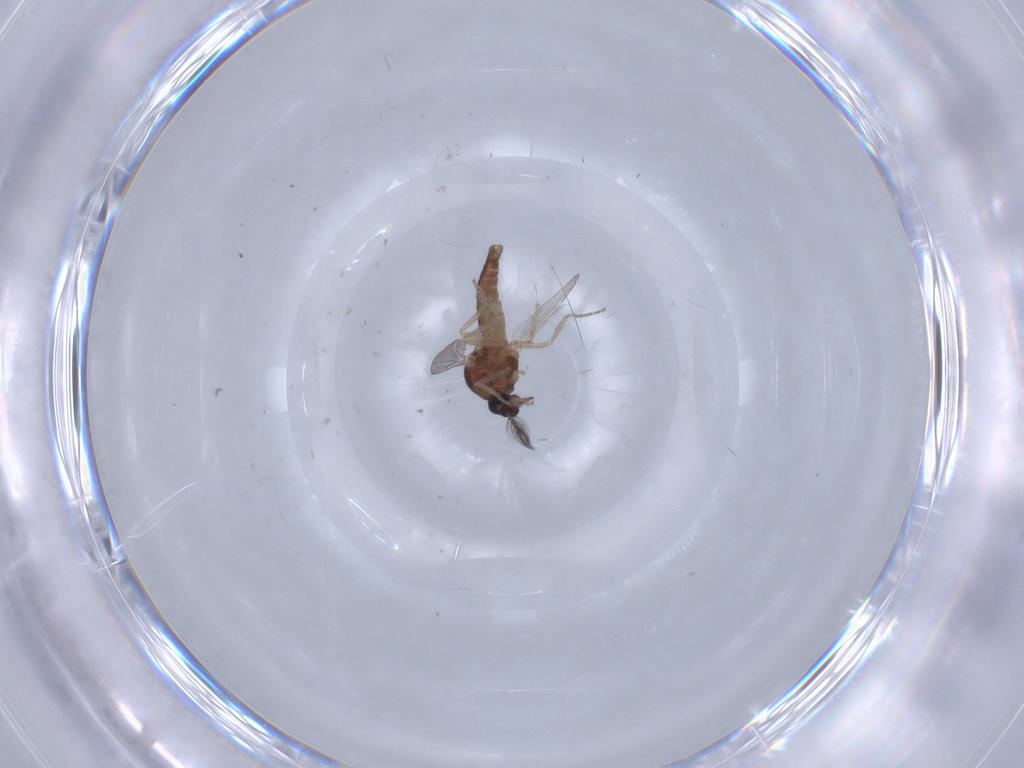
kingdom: Animalia
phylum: Arthropoda
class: Insecta
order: Diptera
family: Ceratopogonidae
